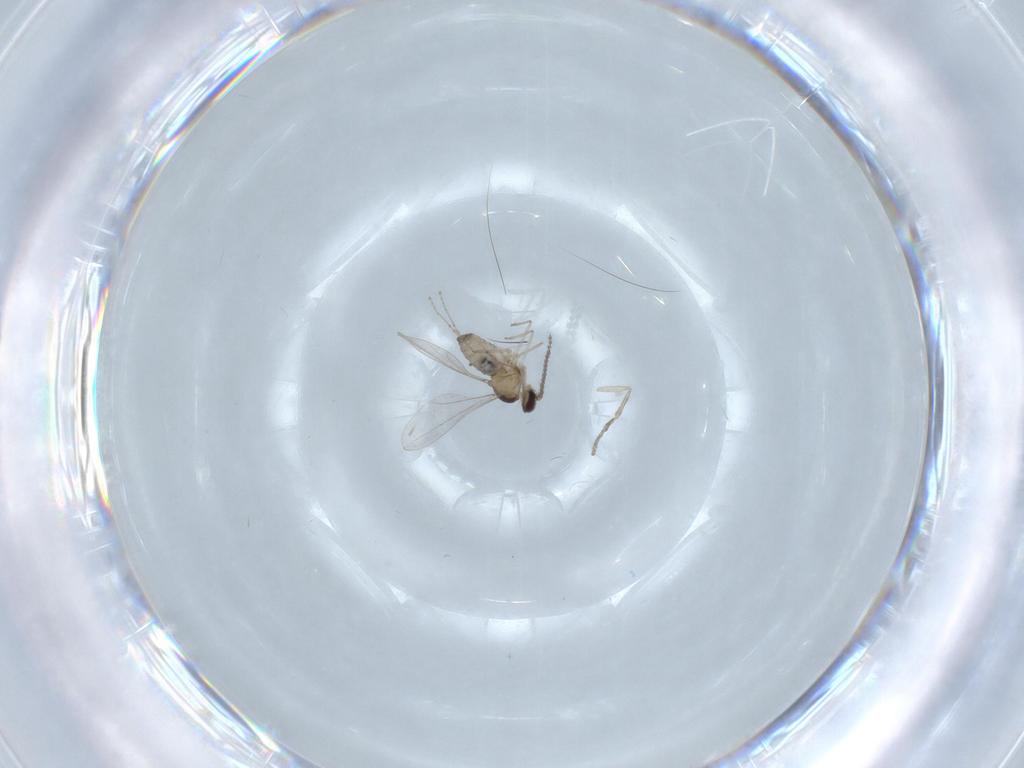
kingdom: Animalia
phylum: Arthropoda
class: Insecta
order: Diptera
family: Cecidomyiidae
